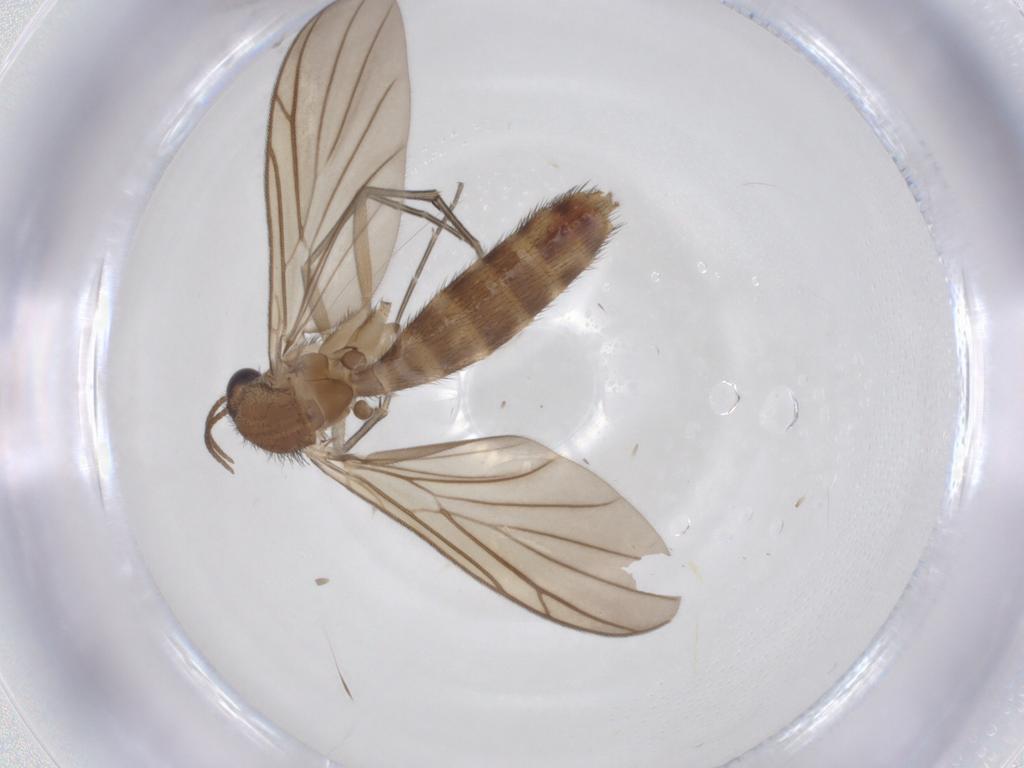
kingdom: Animalia
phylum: Arthropoda
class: Insecta
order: Diptera
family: Keroplatidae
